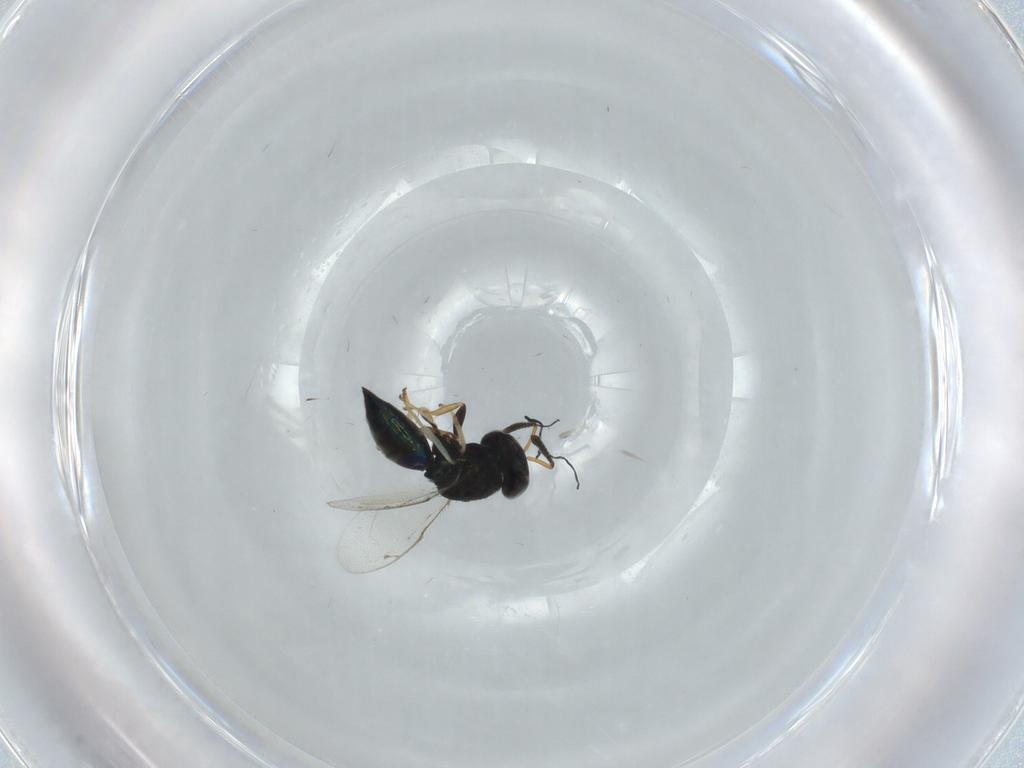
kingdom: Animalia
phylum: Arthropoda
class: Insecta
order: Hymenoptera
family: Pteromalidae
